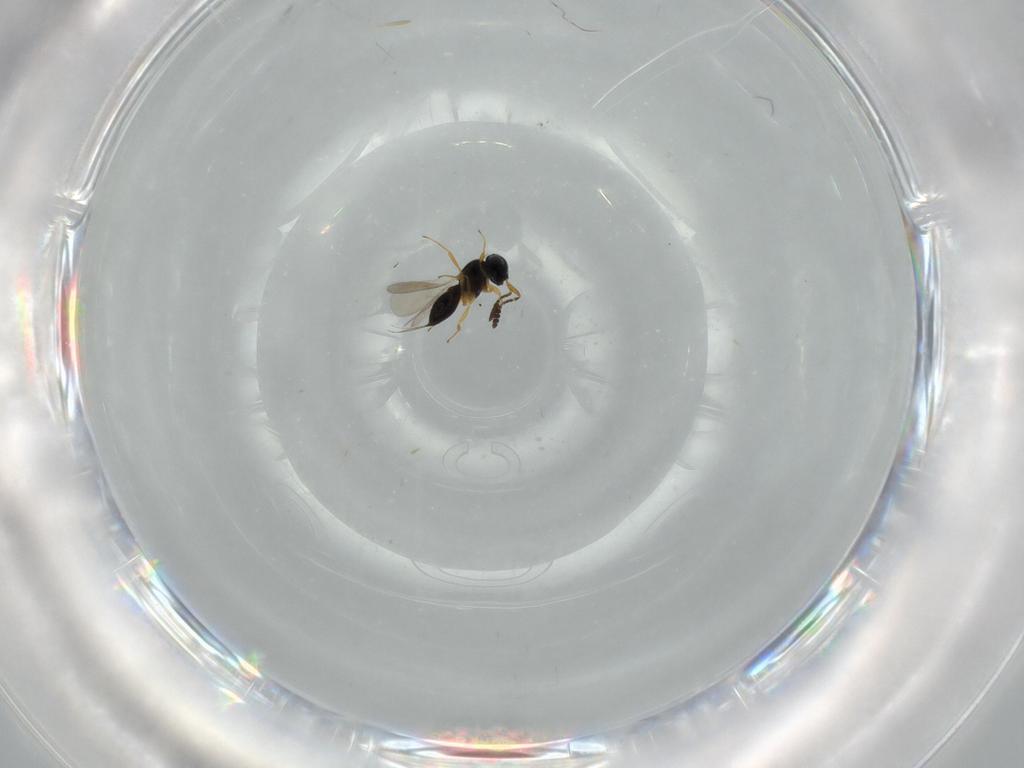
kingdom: Animalia
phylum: Arthropoda
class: Insecta
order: Hymenoptera
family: Scelionidae
